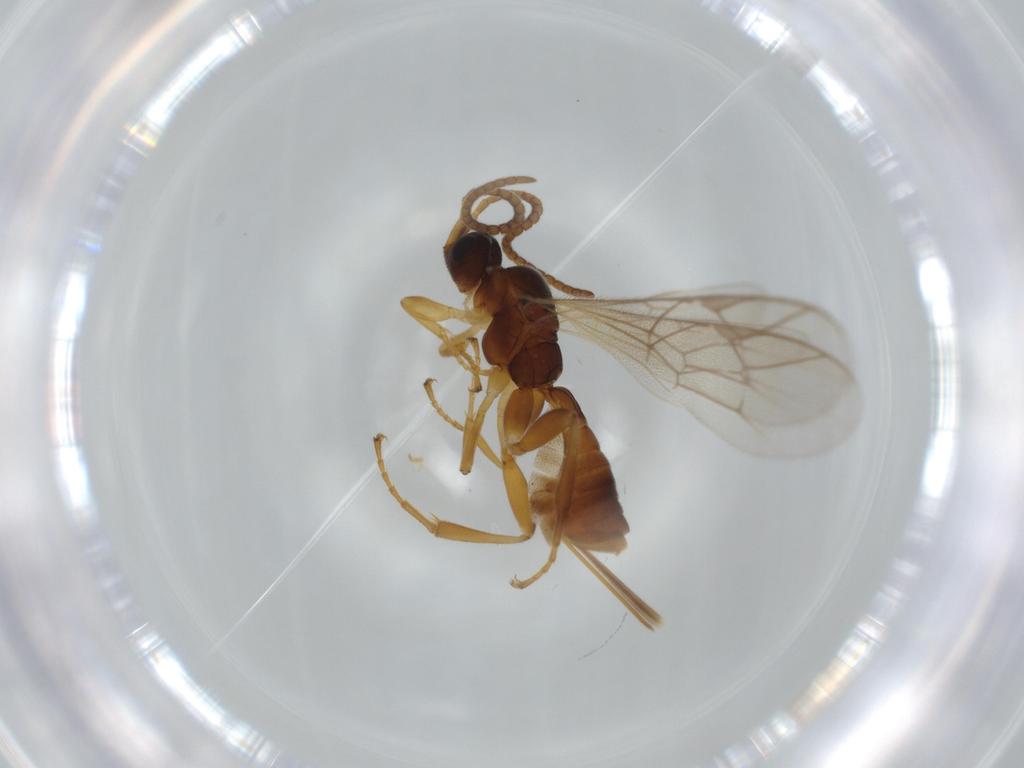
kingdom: Animalia
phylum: Arthropoda
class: Insecta
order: Hymenoptera
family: Ichneumonidae
